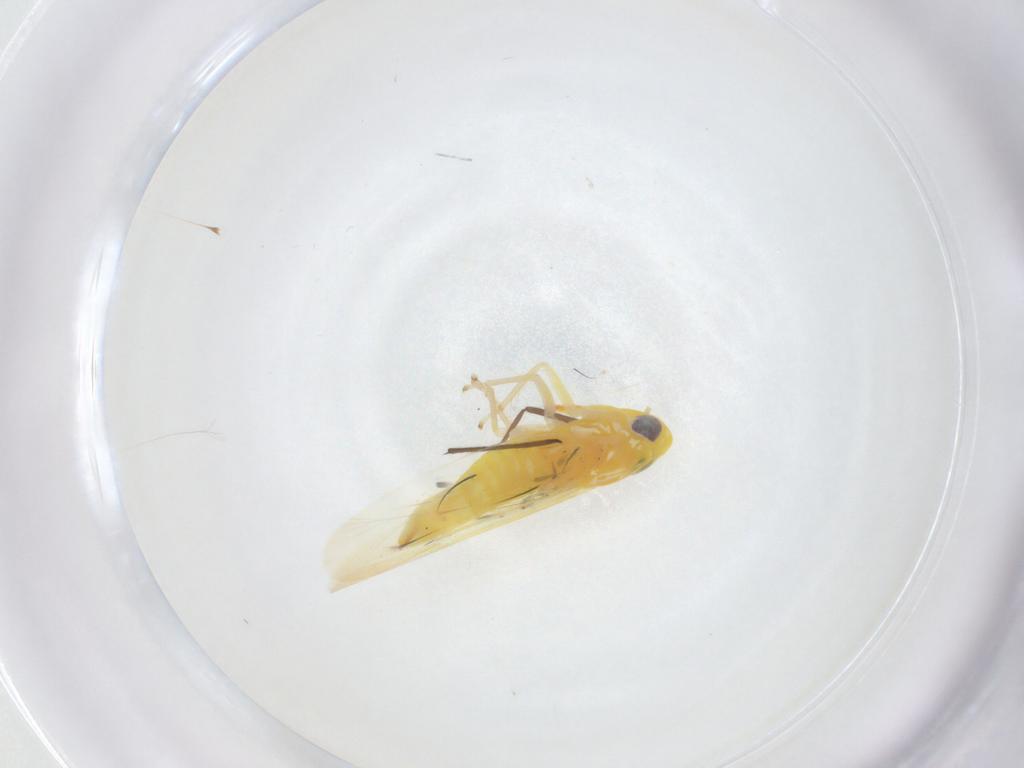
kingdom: Animalia
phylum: Arthropoda
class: Insecta
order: Hemiptera
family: Cicadellidae
